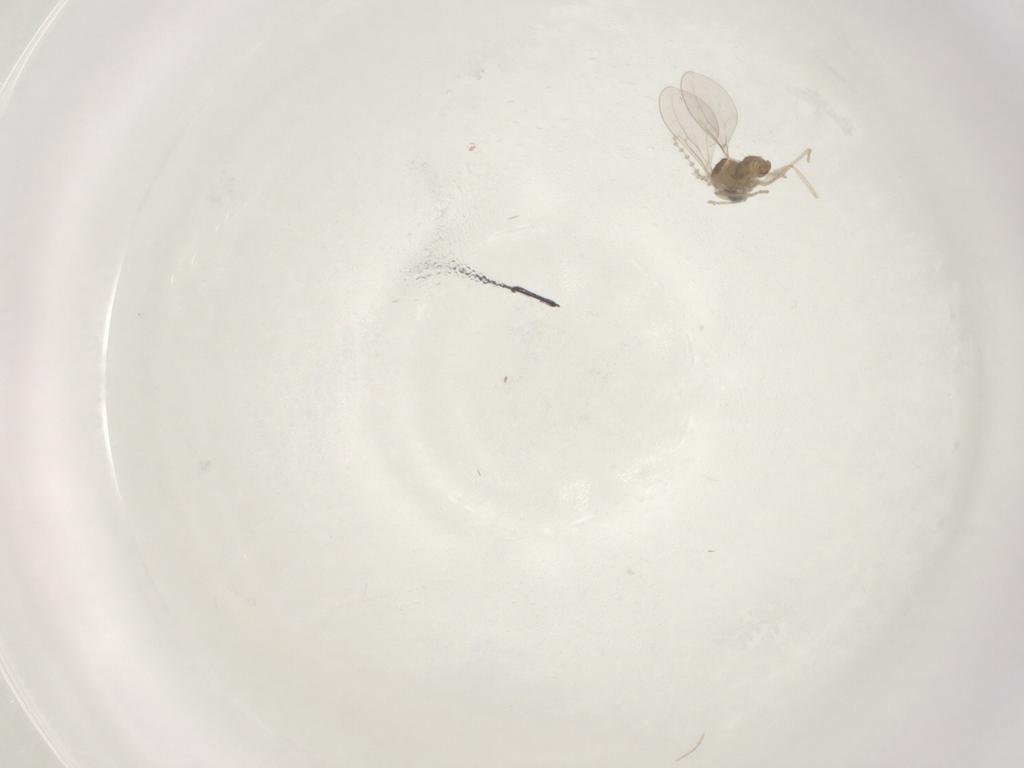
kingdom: Animalia
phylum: Arthropoda
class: Insecta
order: Diptera
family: Cecidomyiidae
